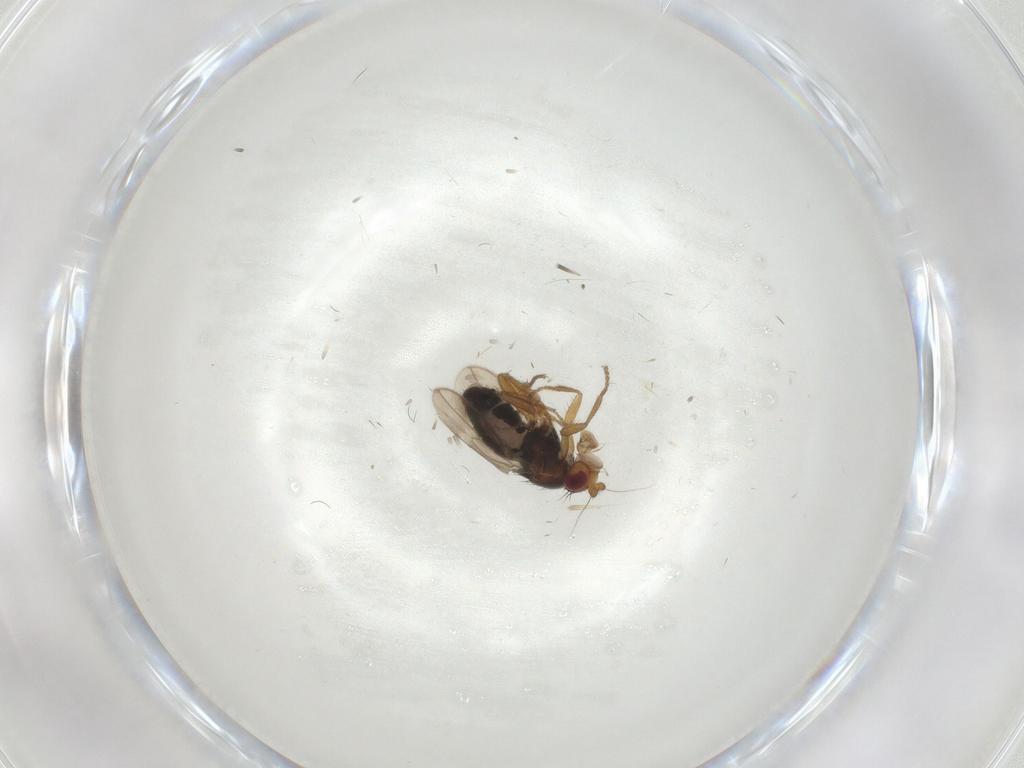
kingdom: Animalia
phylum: Arthropoda
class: Insecta
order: Diptera
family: Sphaeroceridae
